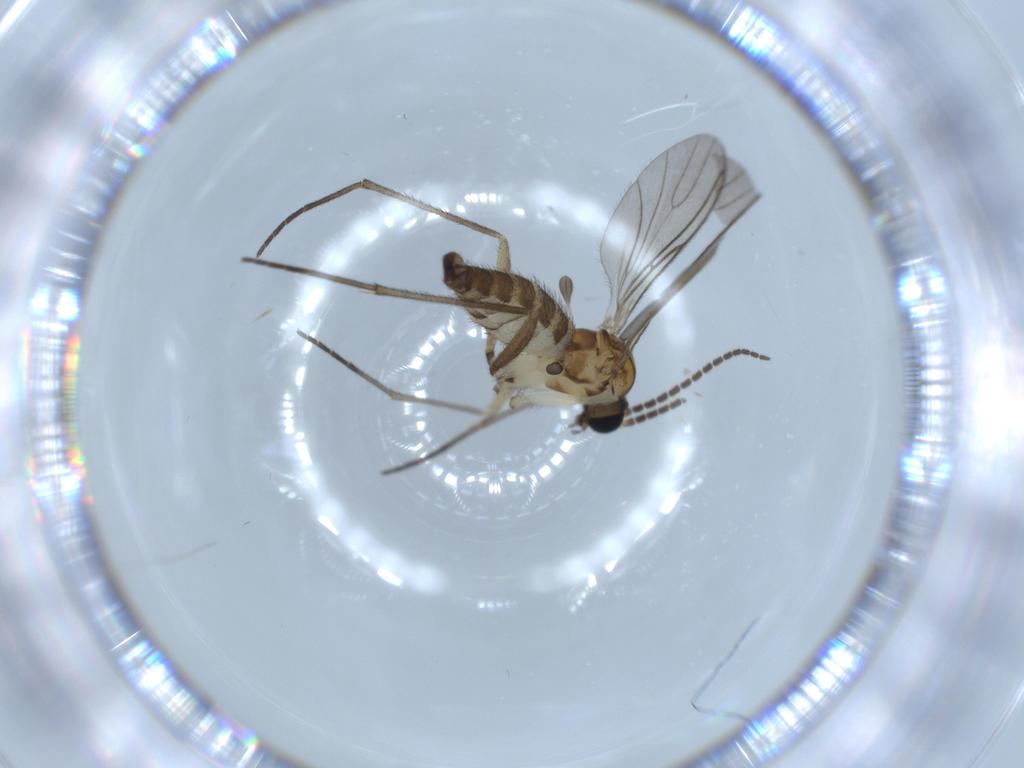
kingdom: Animalia
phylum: Arthropoda
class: Insecta
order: Diptera
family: Sciaridae
